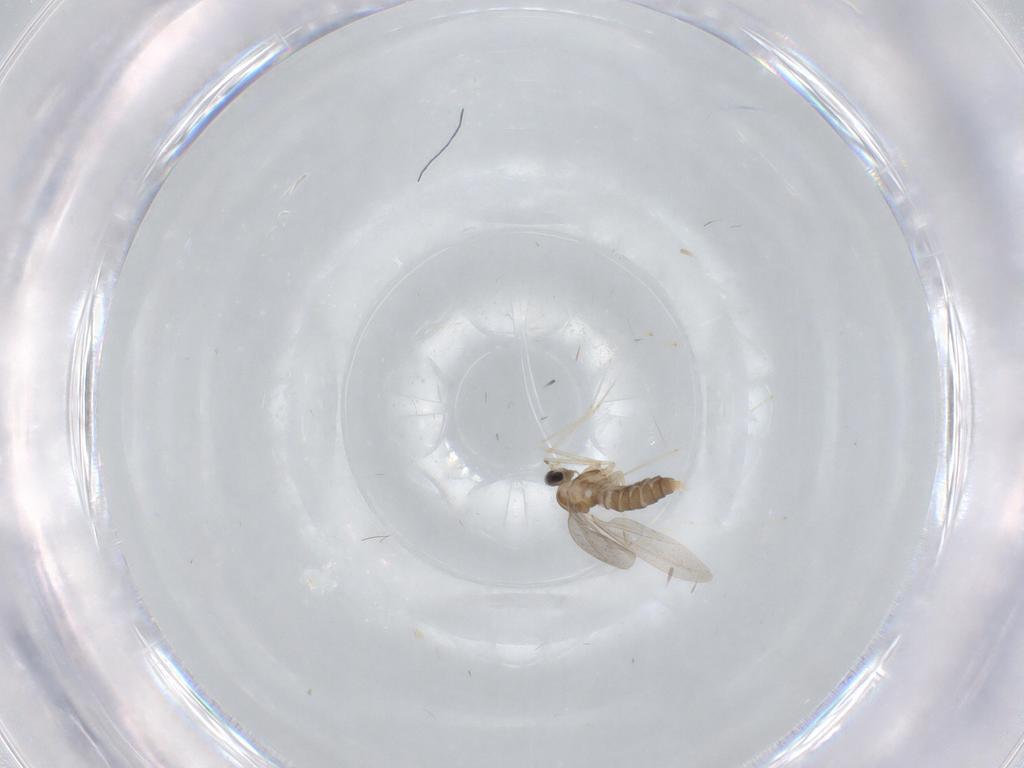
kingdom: Animalia
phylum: Arthropoda
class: Insecta
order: Diptera
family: Cecidomyiidae
